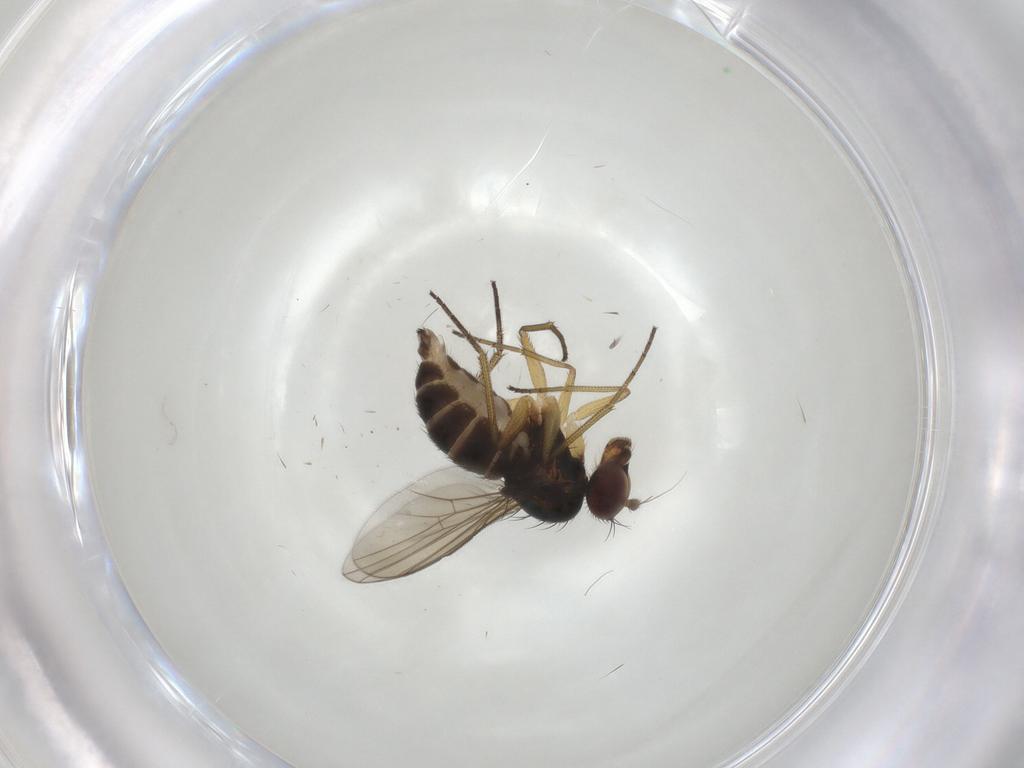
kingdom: Animalia
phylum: Arthropoda
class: Insecta
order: Diptera
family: Dolichopodidae
